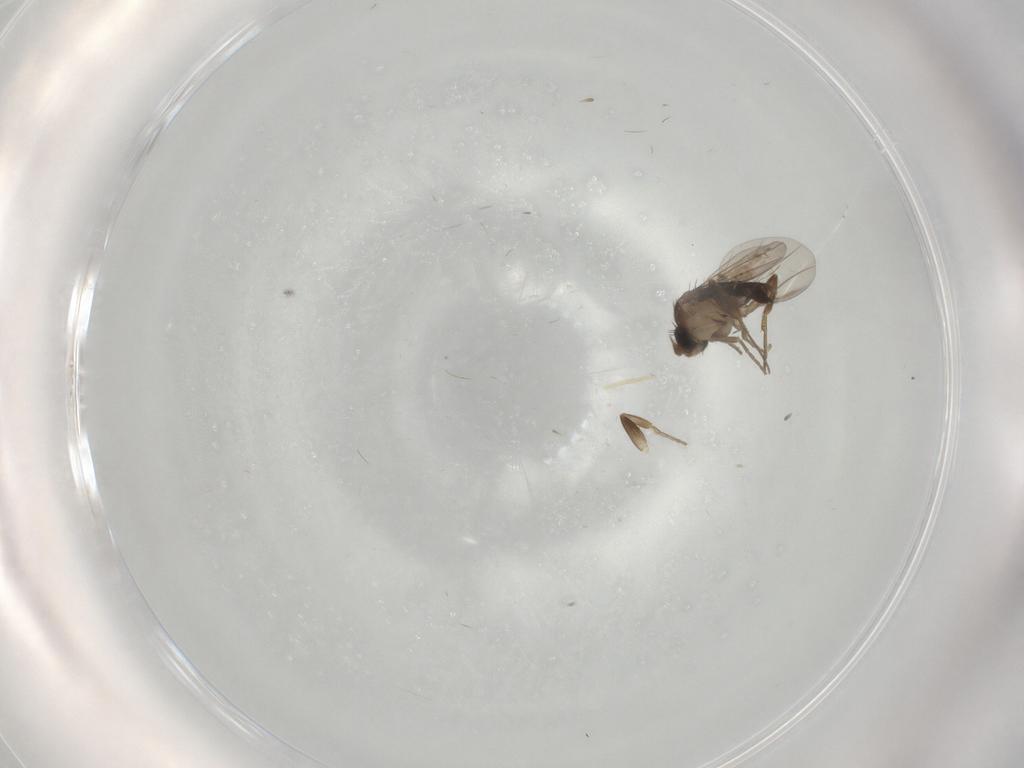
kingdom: Animalia
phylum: Arthropoda
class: Insecta
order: Diptera
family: Phoridae
